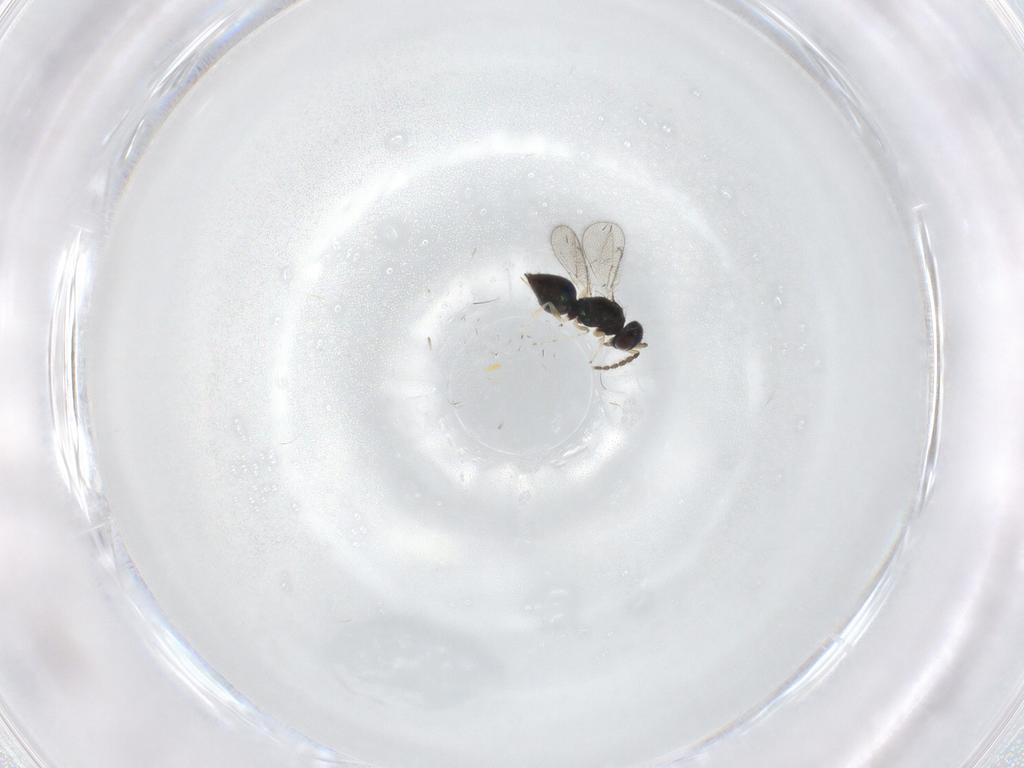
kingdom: Animalia
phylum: Arthropoda
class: Insecta
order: Hymenoptera
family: Eulophidae
